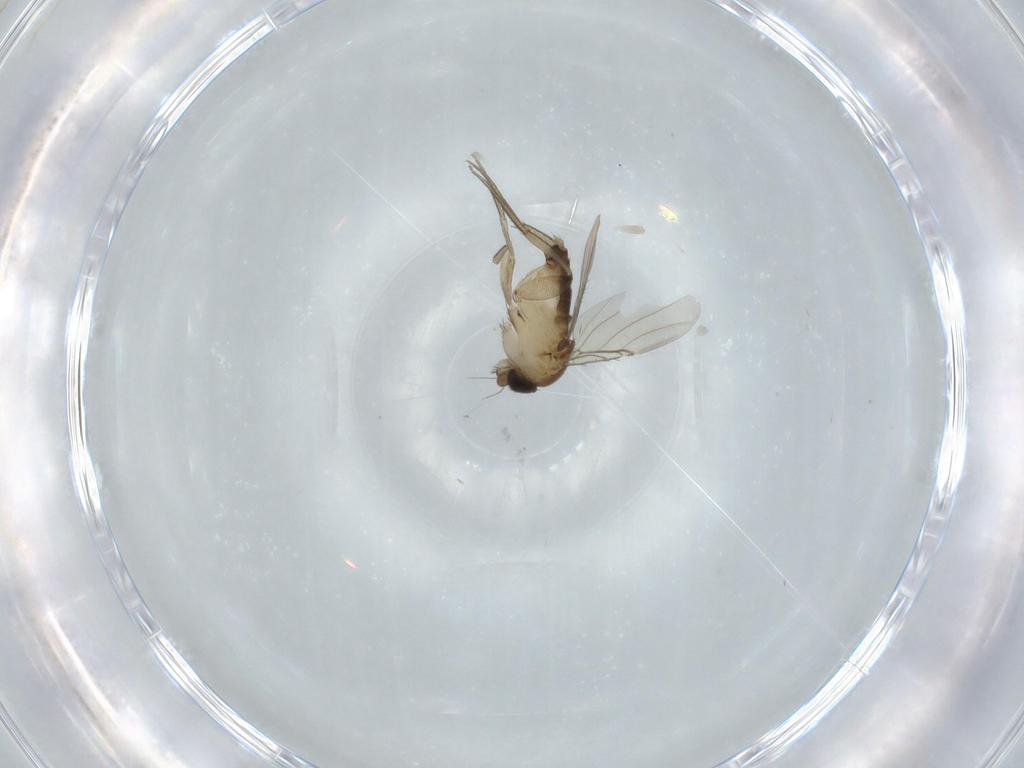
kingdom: Animalia
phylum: Arthropoda
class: Insecta
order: Diptera
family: Phoridae
